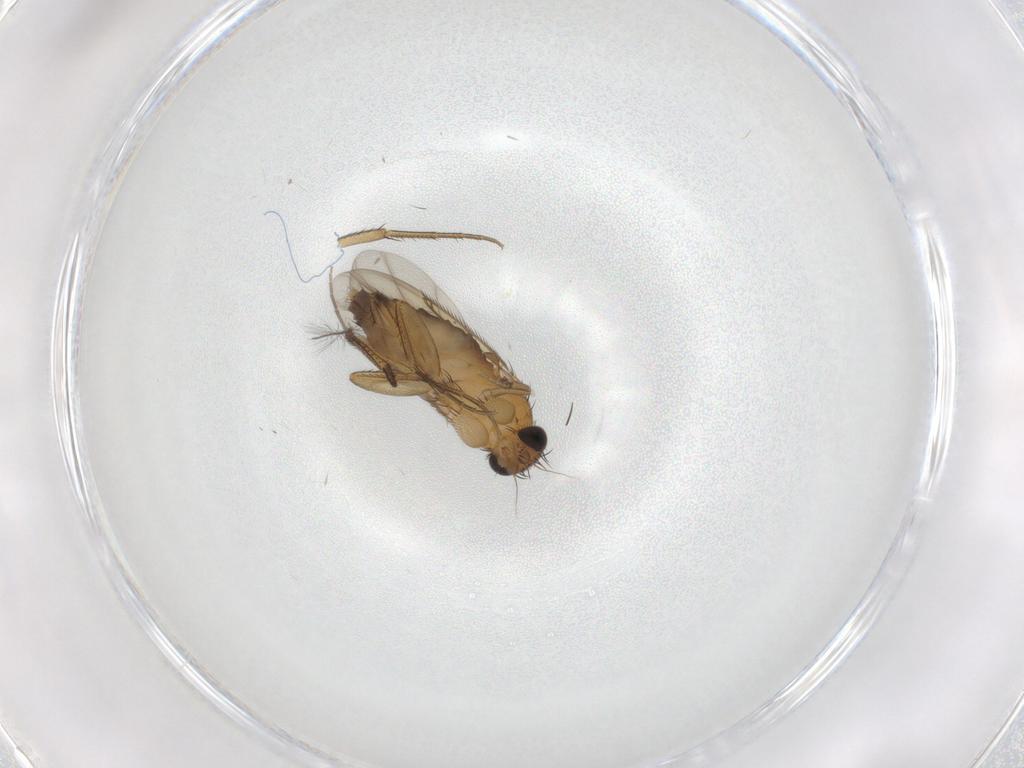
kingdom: Animalia
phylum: Arthropoda
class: Insecta
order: Diptera
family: Phoridae
